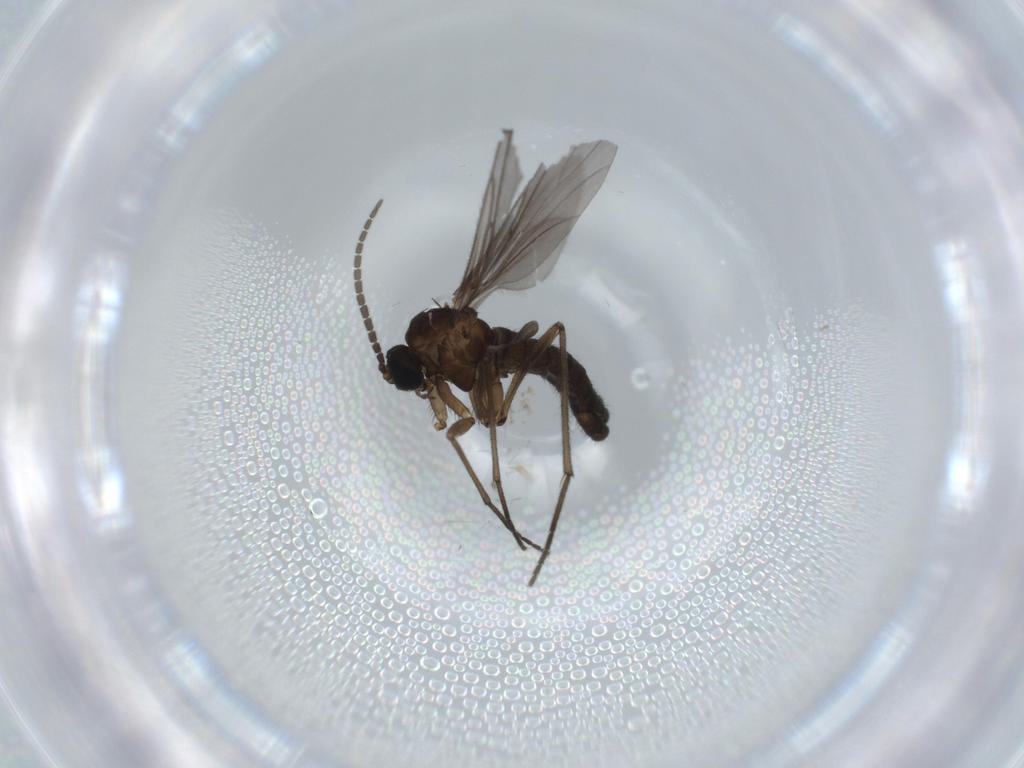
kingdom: Animalia
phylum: Arthropoda
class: Insecta
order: Diptera
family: Sciaridae
